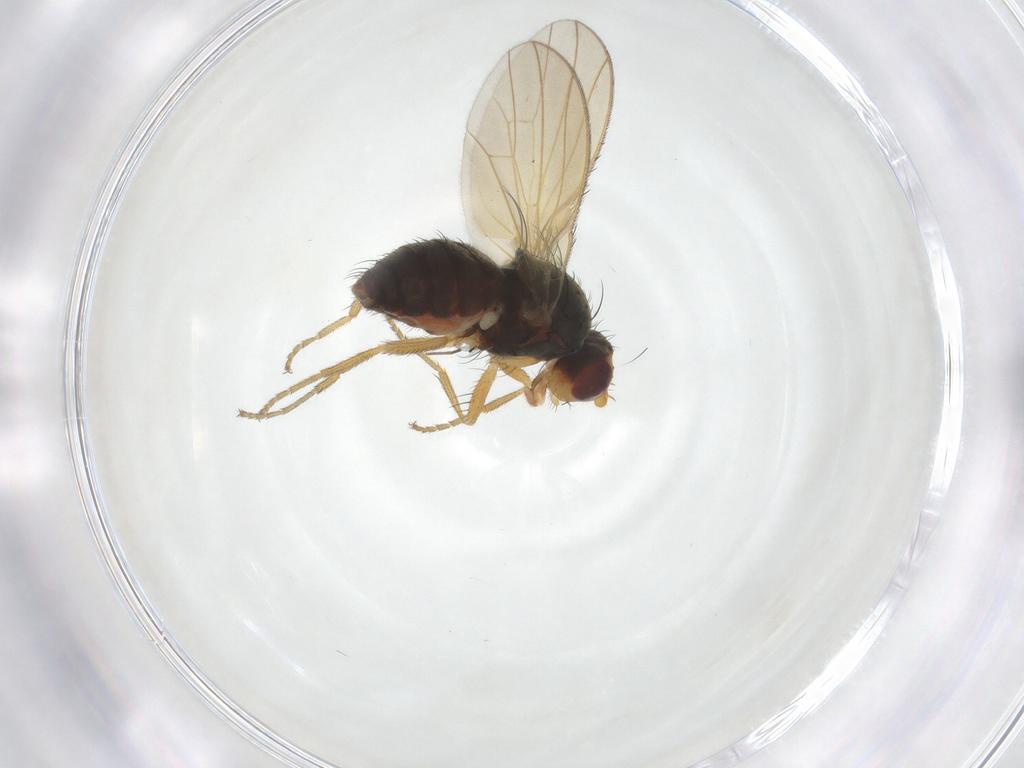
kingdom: Animalia
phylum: Arthropoda
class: Insecta
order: Diptera
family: Heleomyzidae
